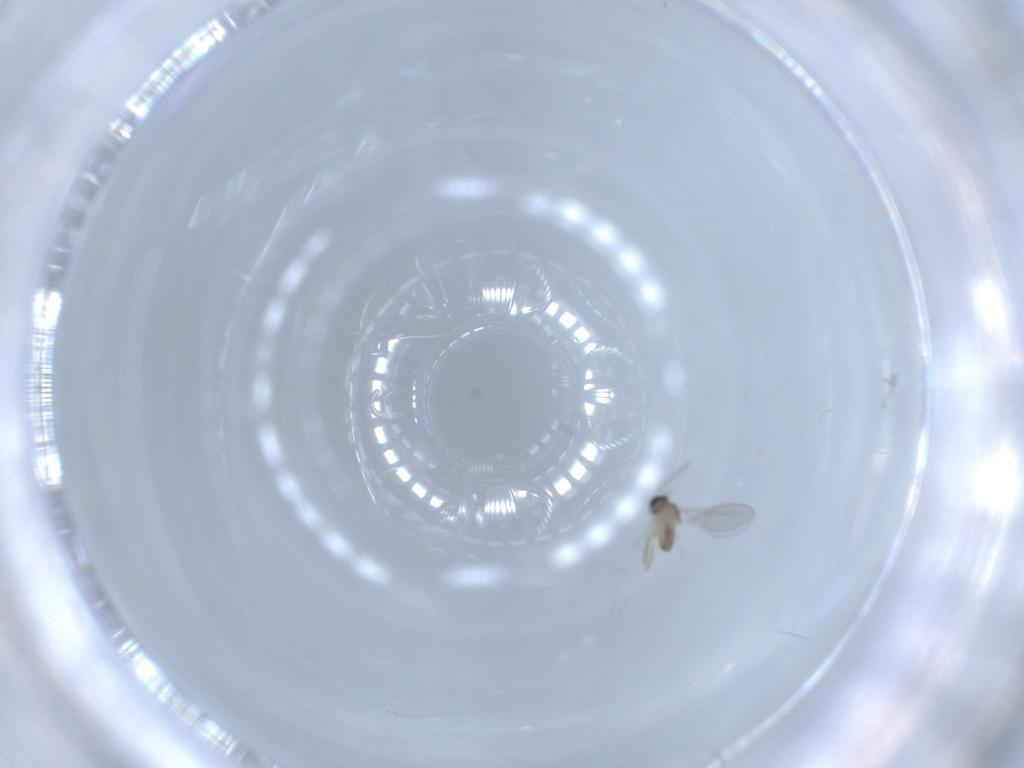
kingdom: Animalia
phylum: Arthropoda
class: Insecta
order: Diptera
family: Cecidomyiidae
